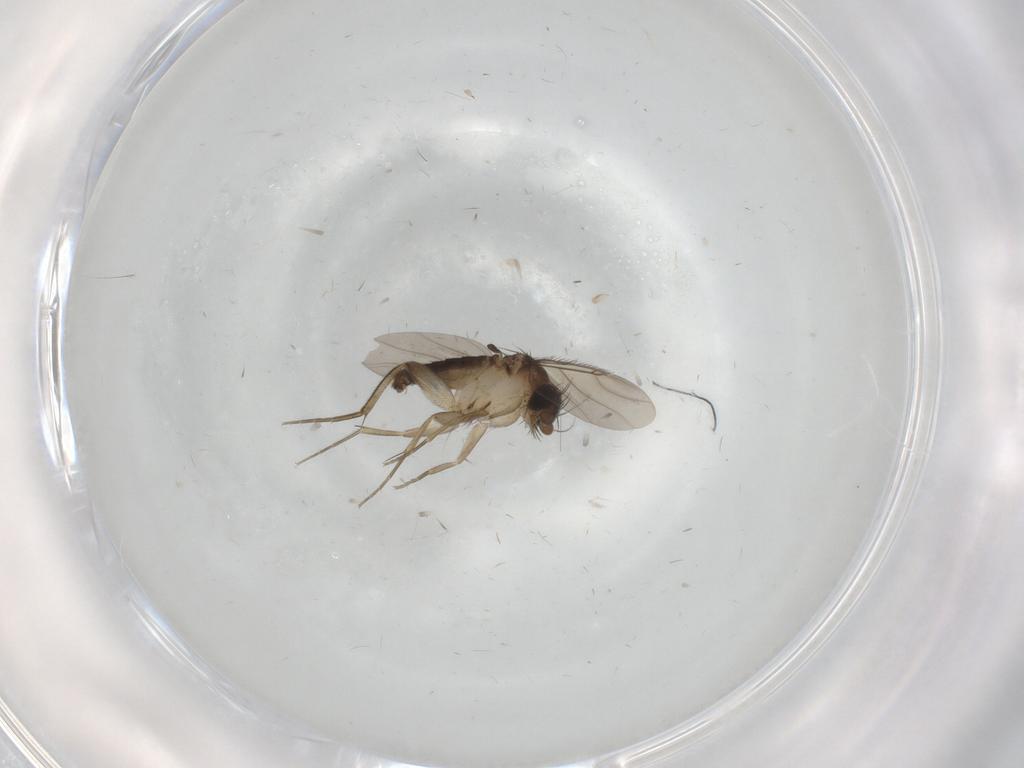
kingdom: Animalia
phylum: Arthropoda
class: Insecta
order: Diptera
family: Phoridae
